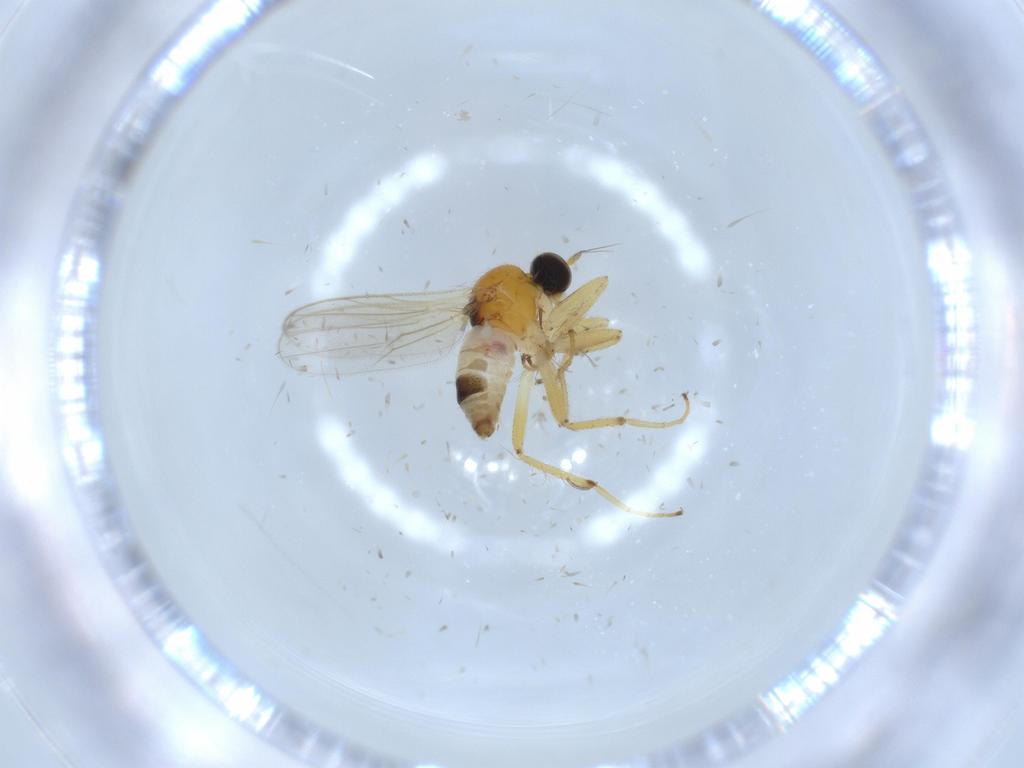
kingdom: Animalia
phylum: Arthropoda
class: Insecta
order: Diptera
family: Hybotidae
